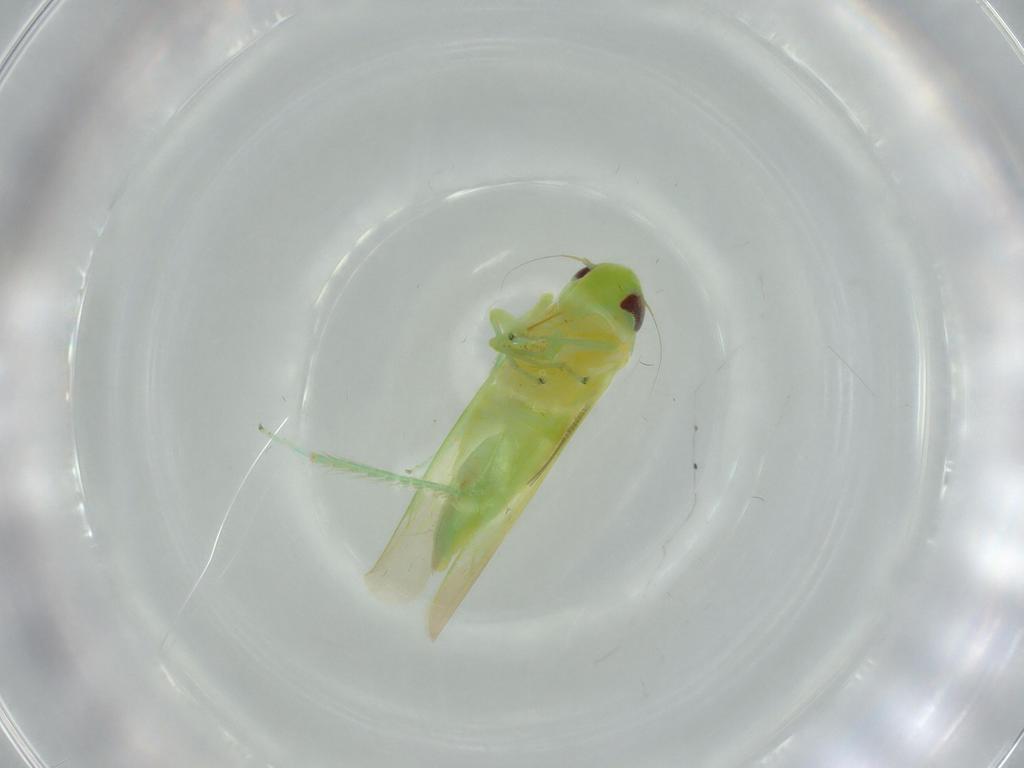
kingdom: Animalia
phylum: Arthropoda
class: Insecta
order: Hemiptera
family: Cicadellidae
